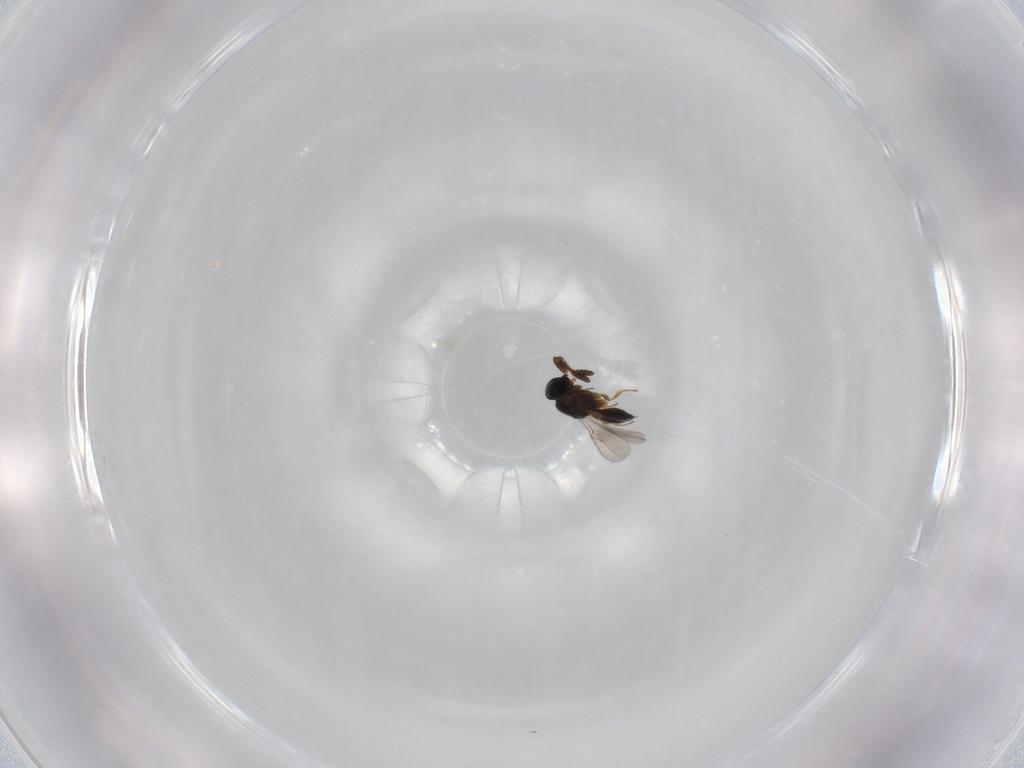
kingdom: Animalia
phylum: Arthropoda
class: Insecta
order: Hymenoptera
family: Scelionidae
